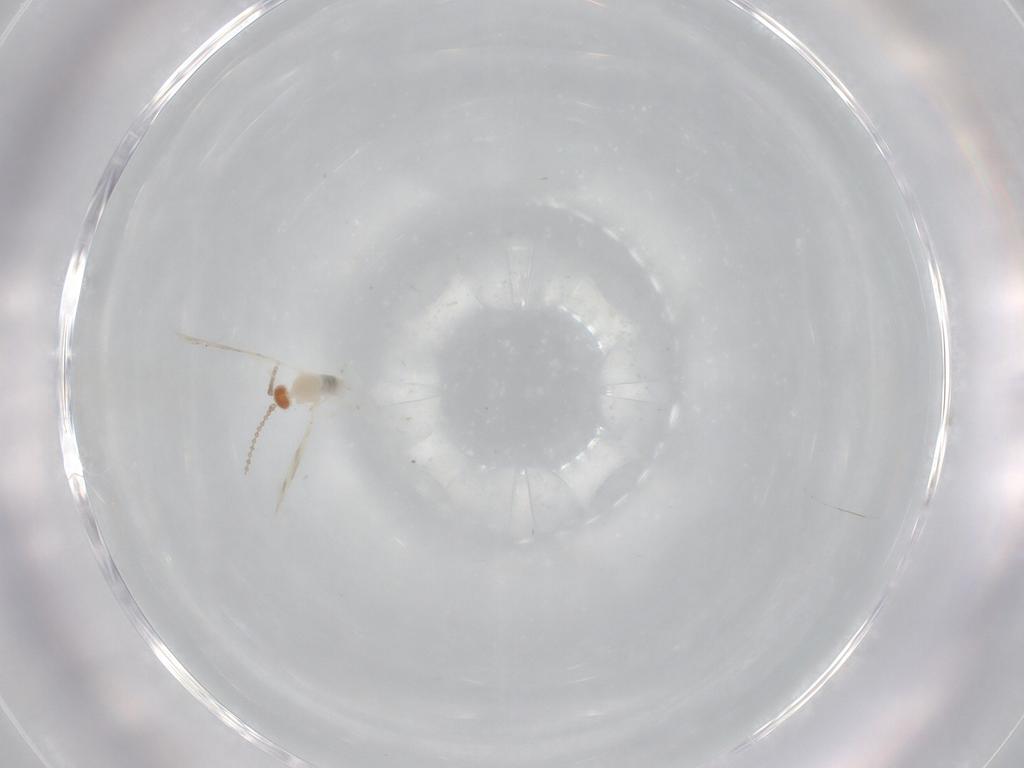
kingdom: Animalia
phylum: Arthropoda
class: Insecta
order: Diptera
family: Cecidomyiidae
